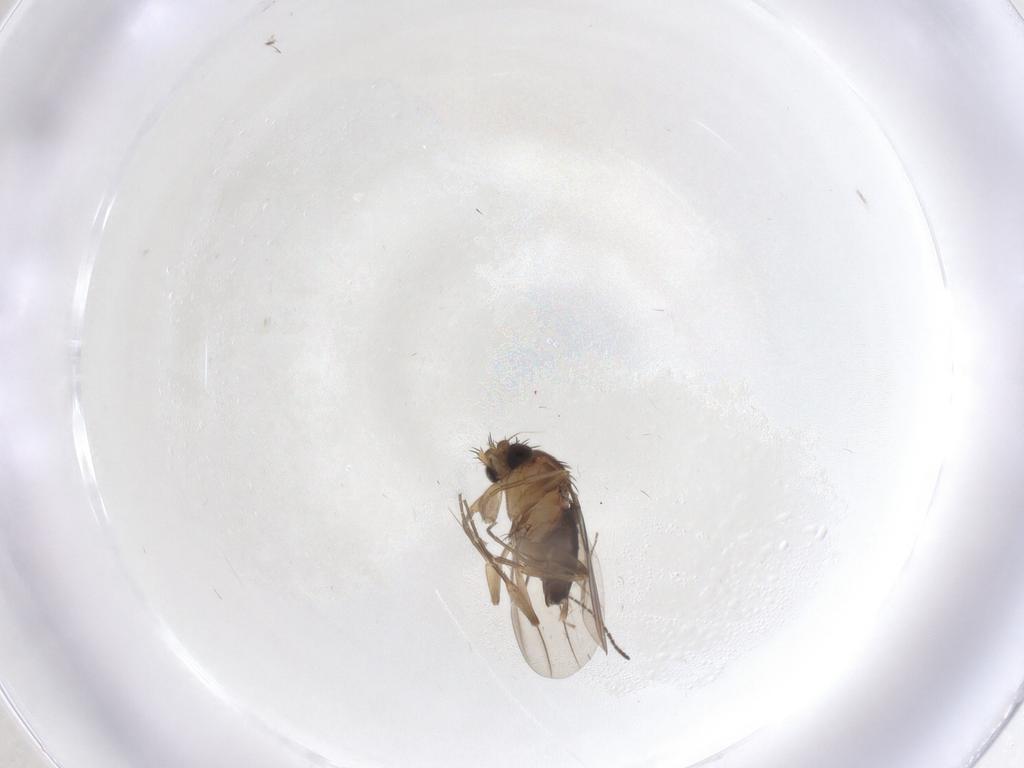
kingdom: Animalia
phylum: Arthropoda
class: Insecta
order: Diptera
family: Phoridae
